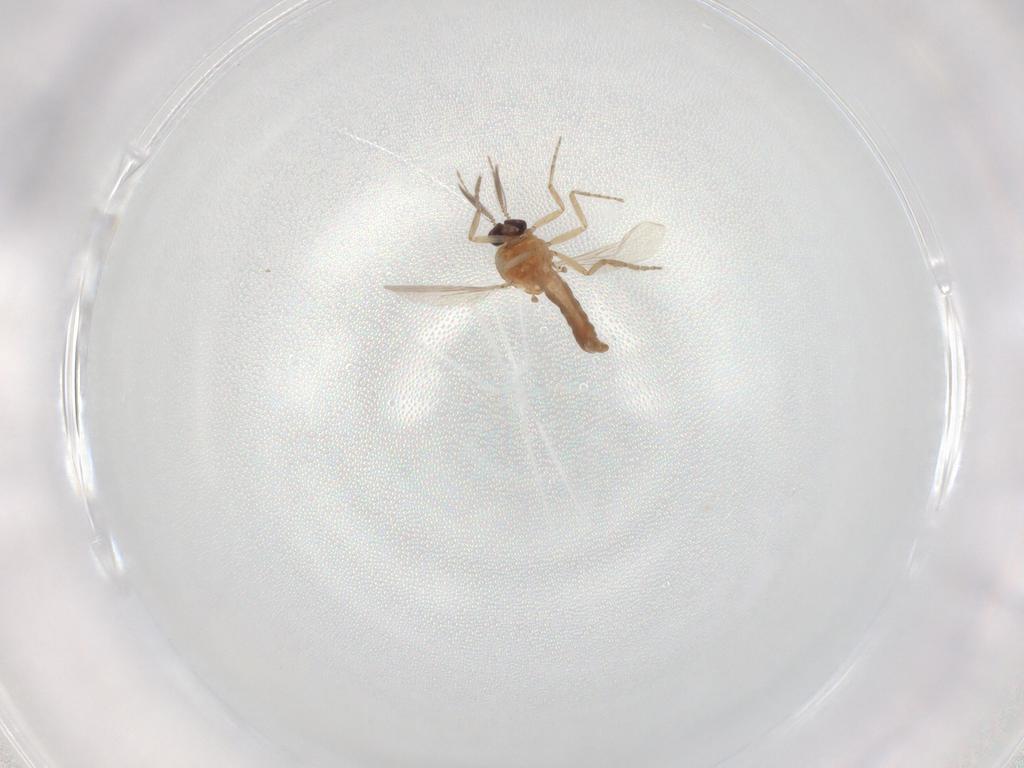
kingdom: Animalia
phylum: Arthropoda
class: Insecta
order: Diptera
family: Ceratopogonidae
